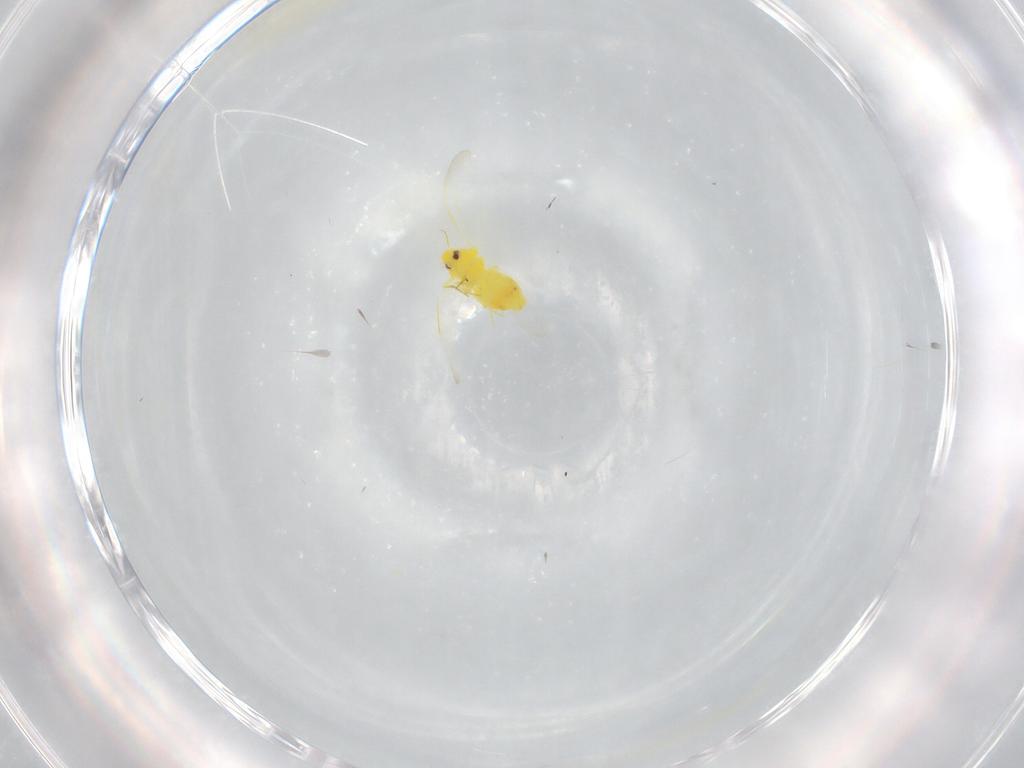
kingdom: Animalia
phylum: Arthropoda
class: Insecta
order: Hemiptera
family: Aleyrodidae
